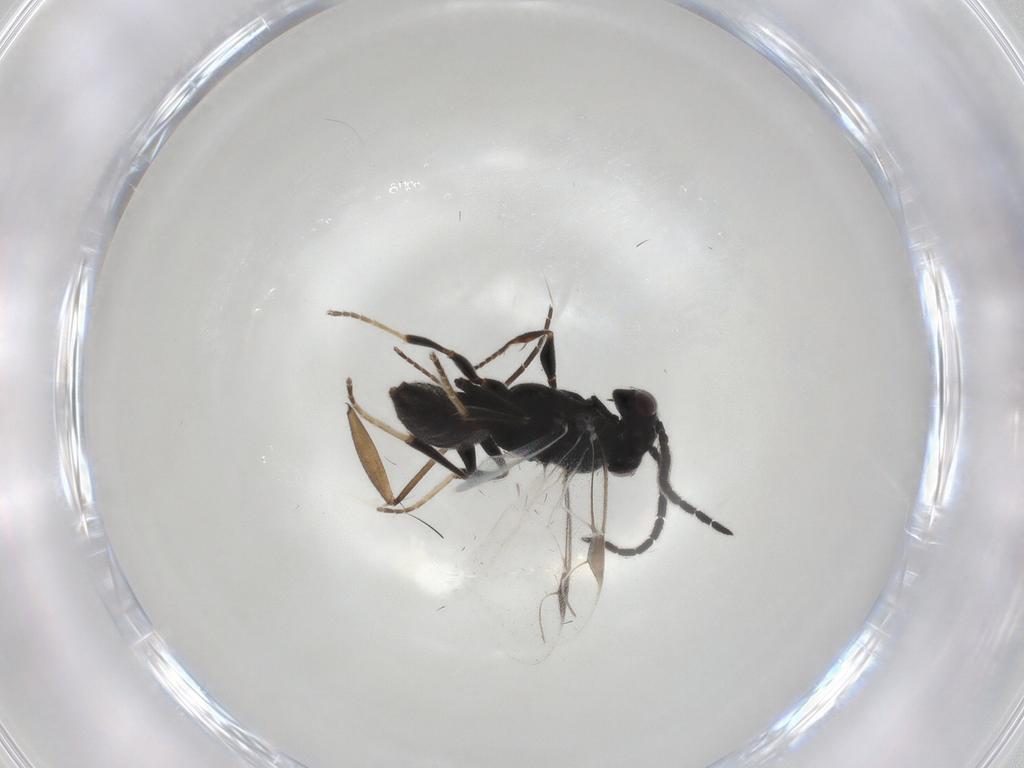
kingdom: Animalia
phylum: Arthropoda
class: Insecta
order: Hymenoptera
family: Dryinidae
